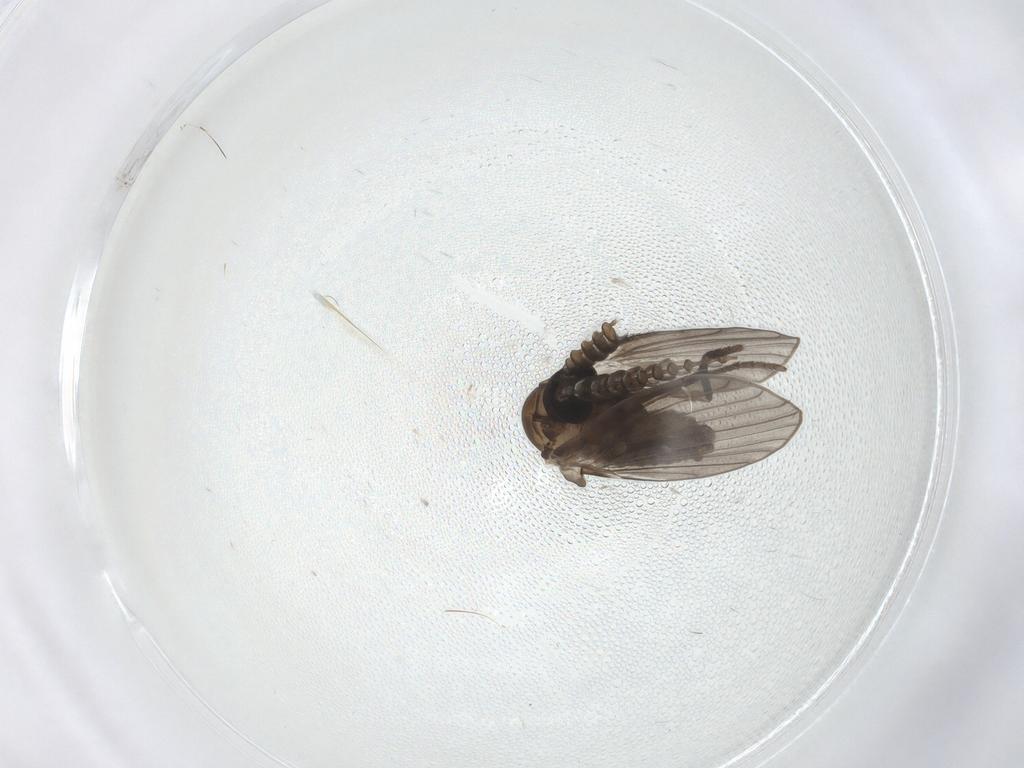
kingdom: Animalia
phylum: Arthropoda
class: Insecta
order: Diptera
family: Psychodidae
